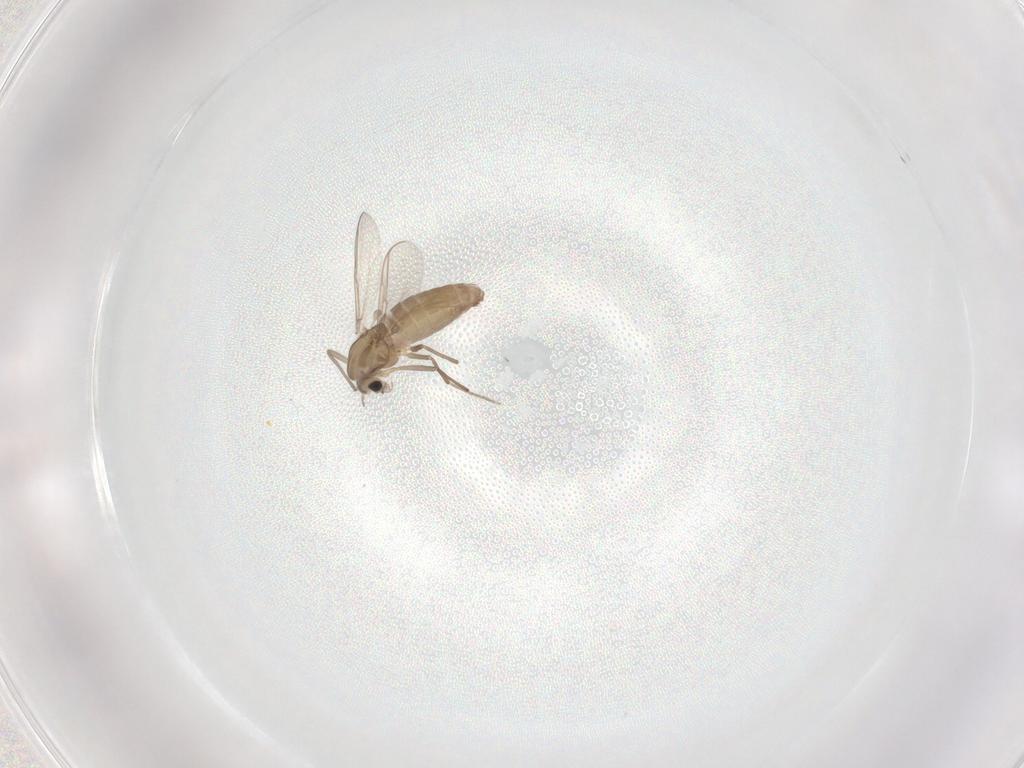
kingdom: Animalia
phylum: Arthropoda
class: Insecta
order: Diptera
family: Chironomidae
